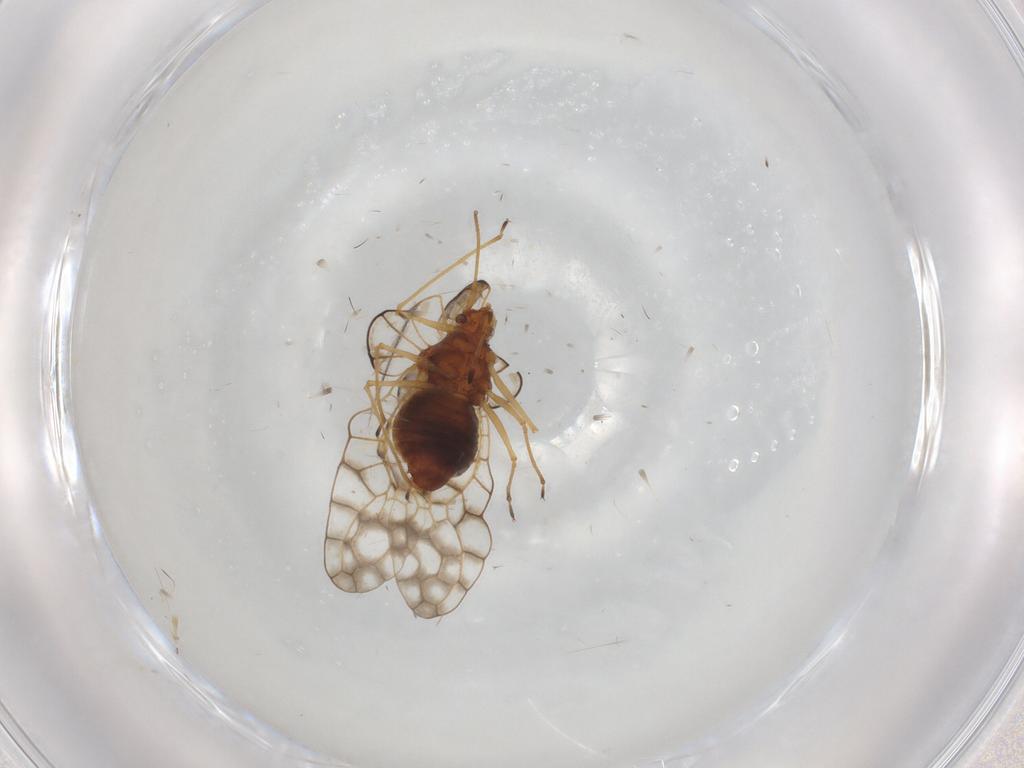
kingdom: Animalia
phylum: Arthropoda
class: Insecta
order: Hemiptera
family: Tingidae
